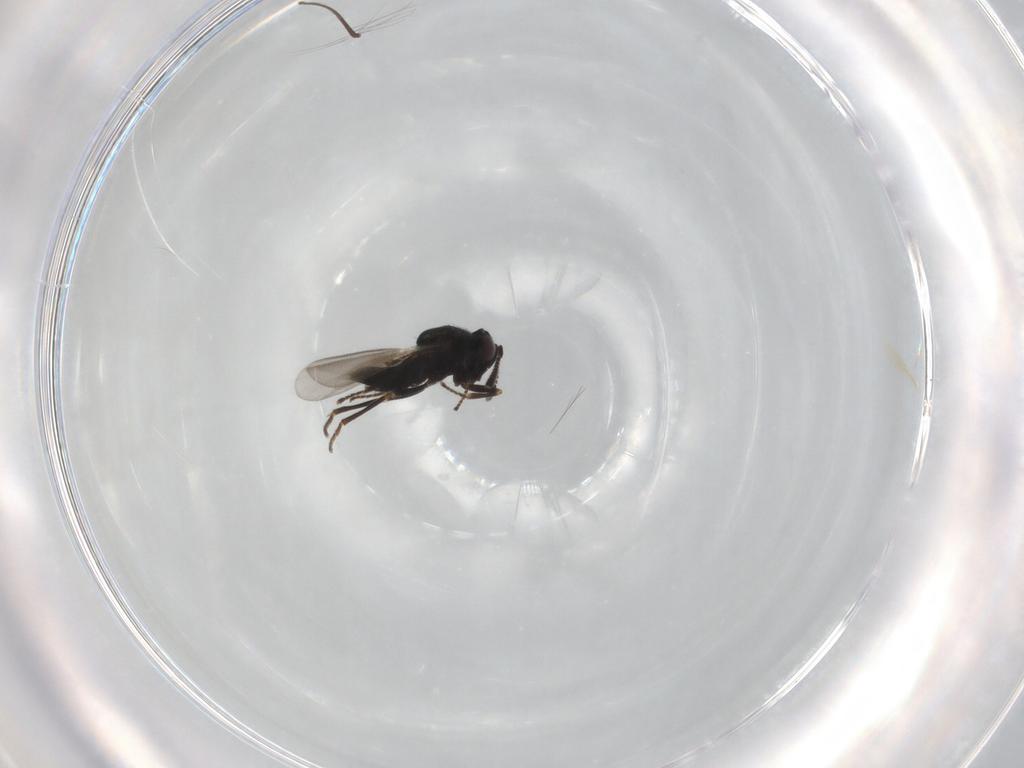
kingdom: Animalia
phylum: Arthropoda
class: Insecta
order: Hymenoptera
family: Encyrtidae
